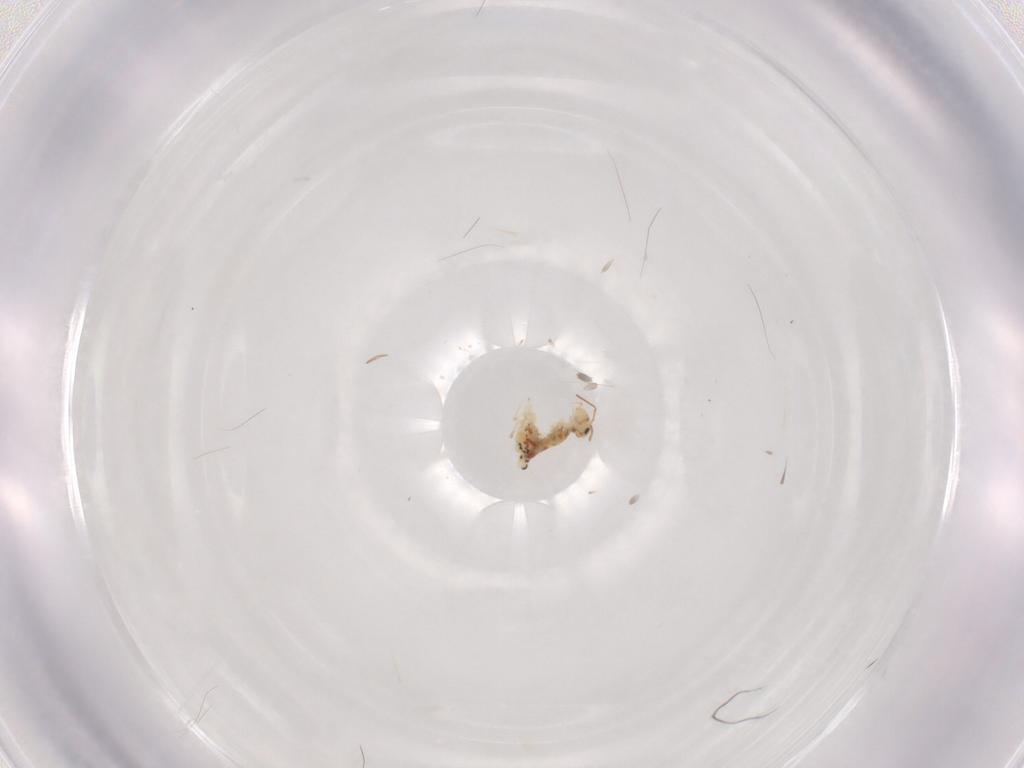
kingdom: Animalia
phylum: Arthropoda
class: Collembola
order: Symphypleona
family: Bourletiellidae
